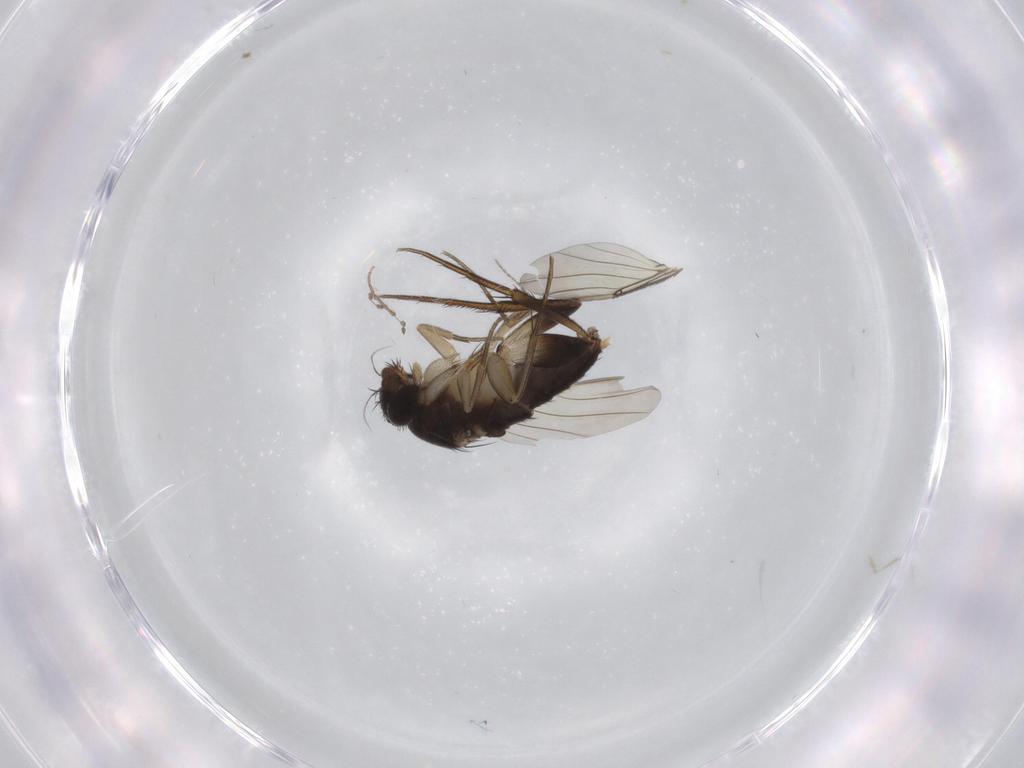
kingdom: Animalia
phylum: Arthropoda
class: Insecta
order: Diptera
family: Phoridae
